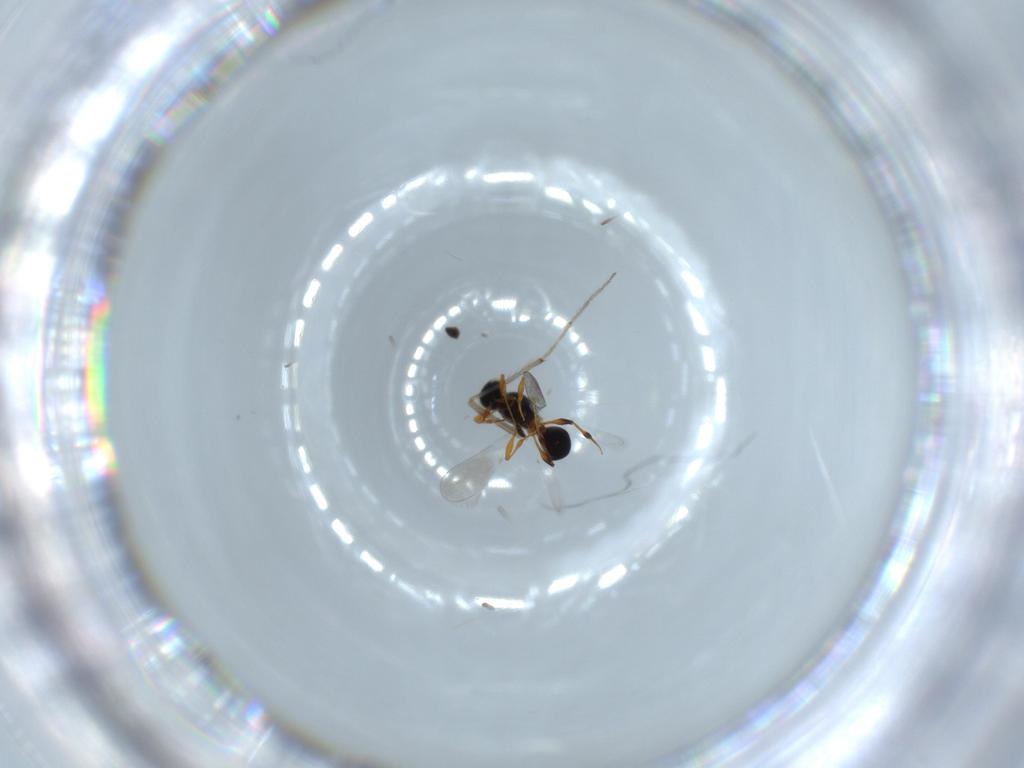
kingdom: Animalia
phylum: Arthropoda
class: Insecta
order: Hymenoptera
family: Scelionidae
